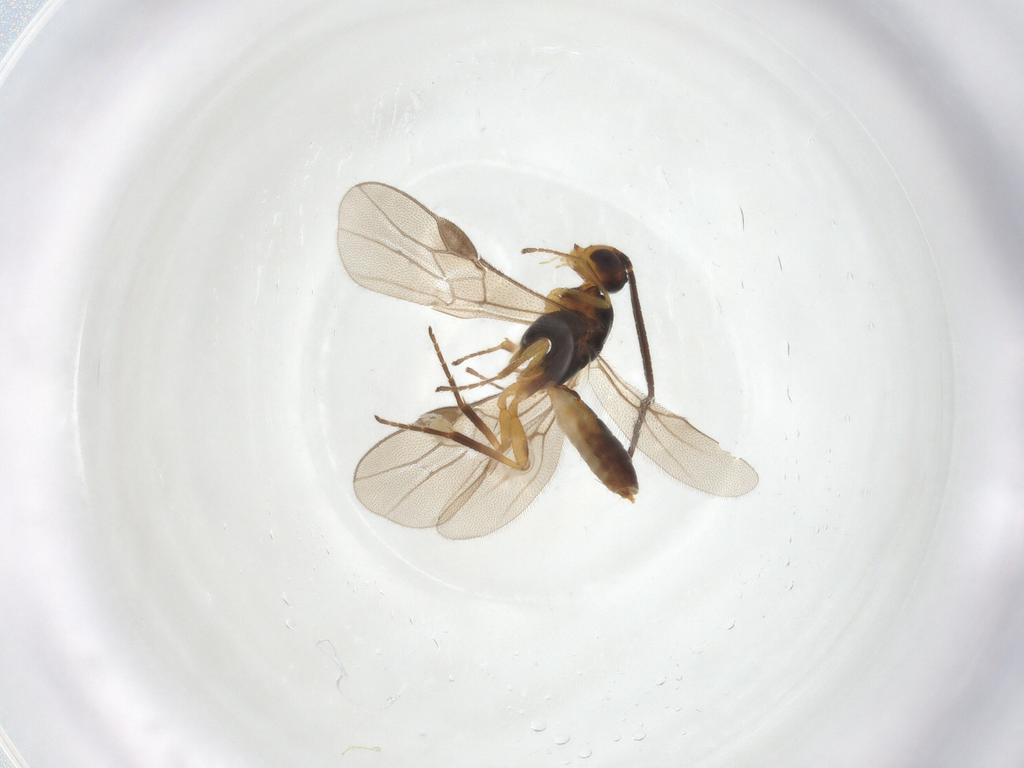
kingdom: Animalia
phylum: Arthropoda
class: Insecta
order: Hymenoptera
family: Braconidae
